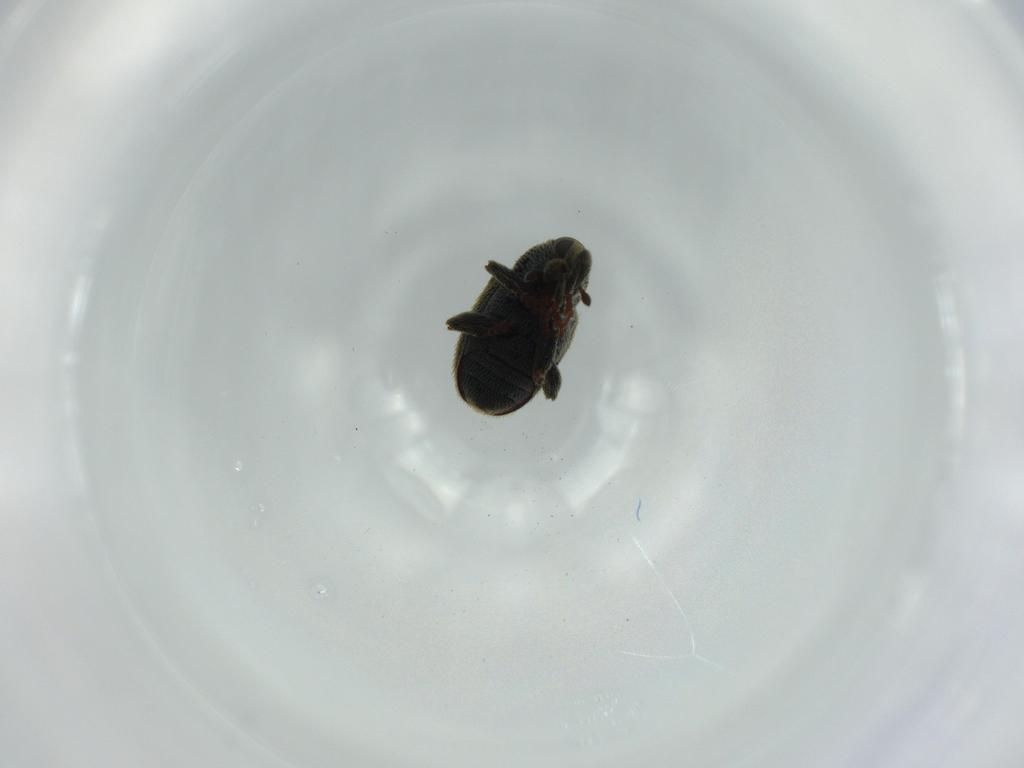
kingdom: Animalia
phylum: Arthropoda
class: Insecta
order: Coleoptera
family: Curculionidae
